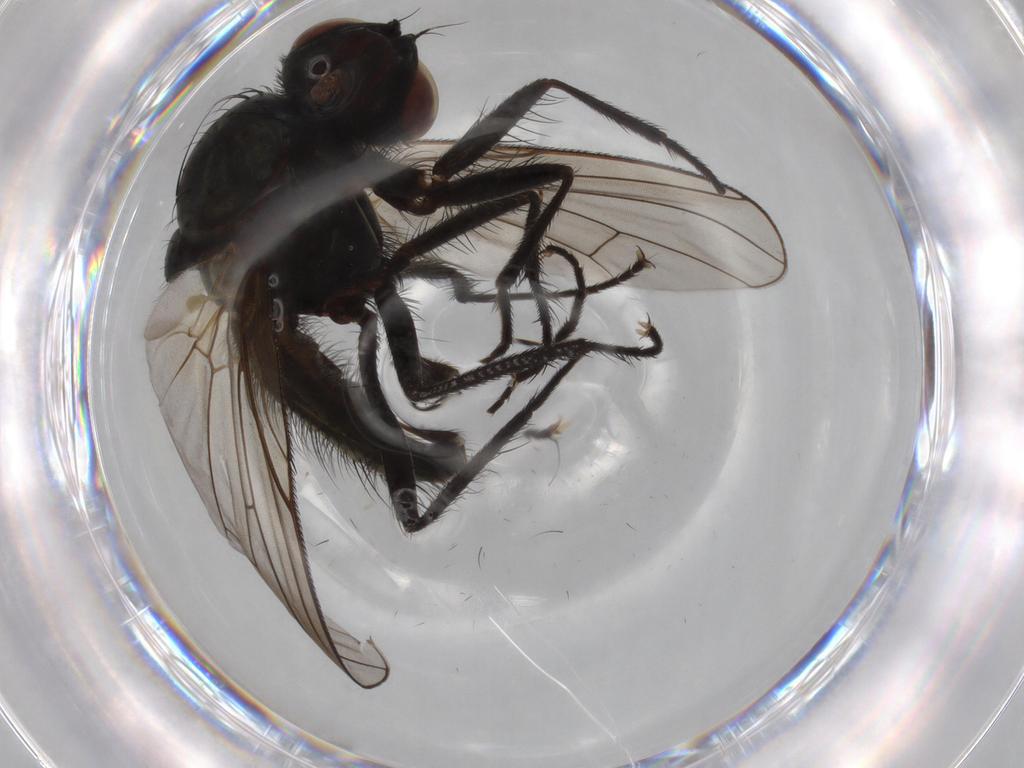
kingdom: Animalia
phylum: Arthropoda
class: Insecta
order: Diptera
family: Anthomyiidae
